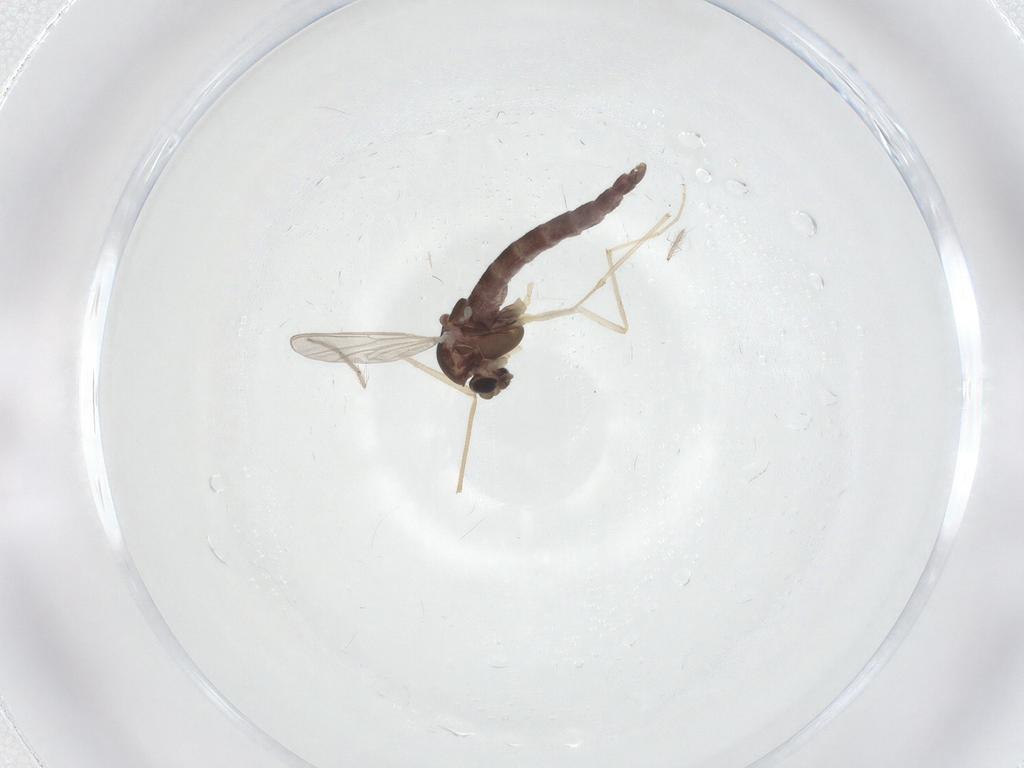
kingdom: Animalia
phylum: Arthropoda
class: Insecta
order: Diptera
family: Chironomidae
